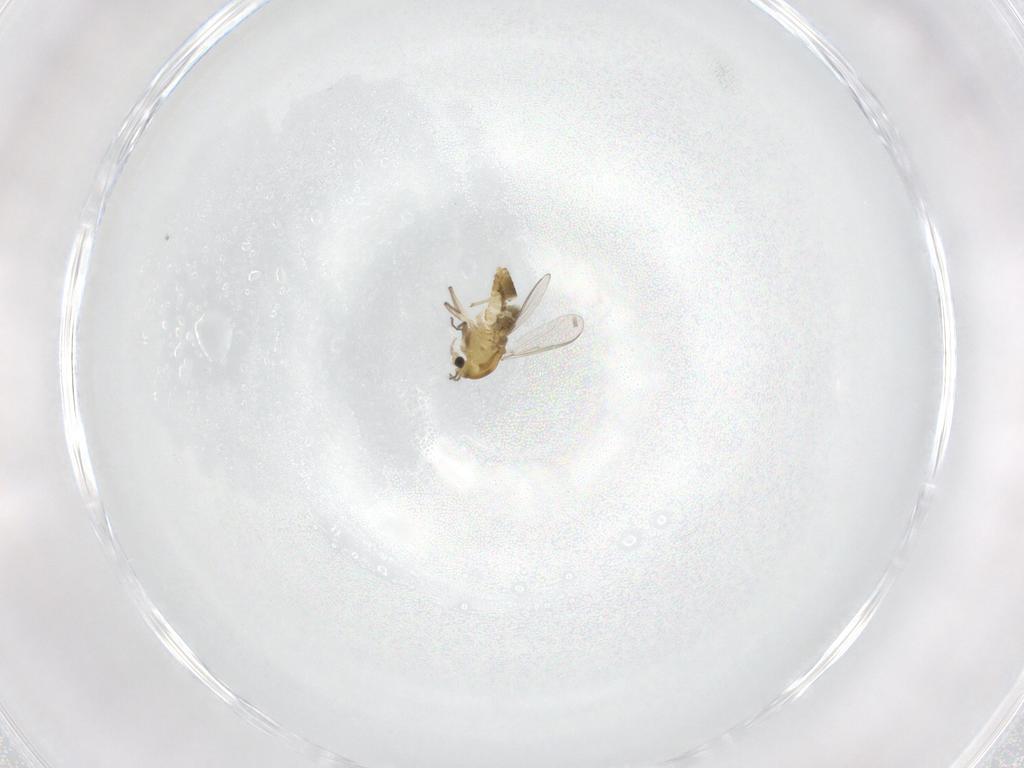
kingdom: Animalia
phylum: Arthropoda
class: Insecta
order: Diptera
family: Chironomidae
